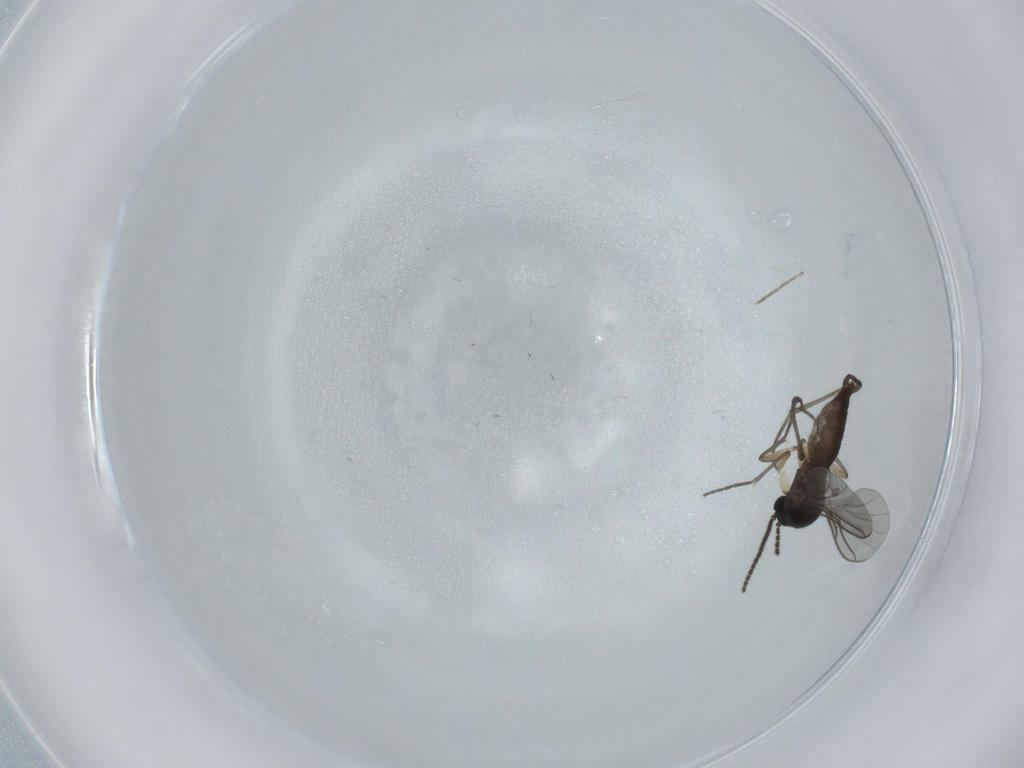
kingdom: Animalia
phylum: Arthropoda
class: Insecta
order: Diptera
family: Sciaridae
